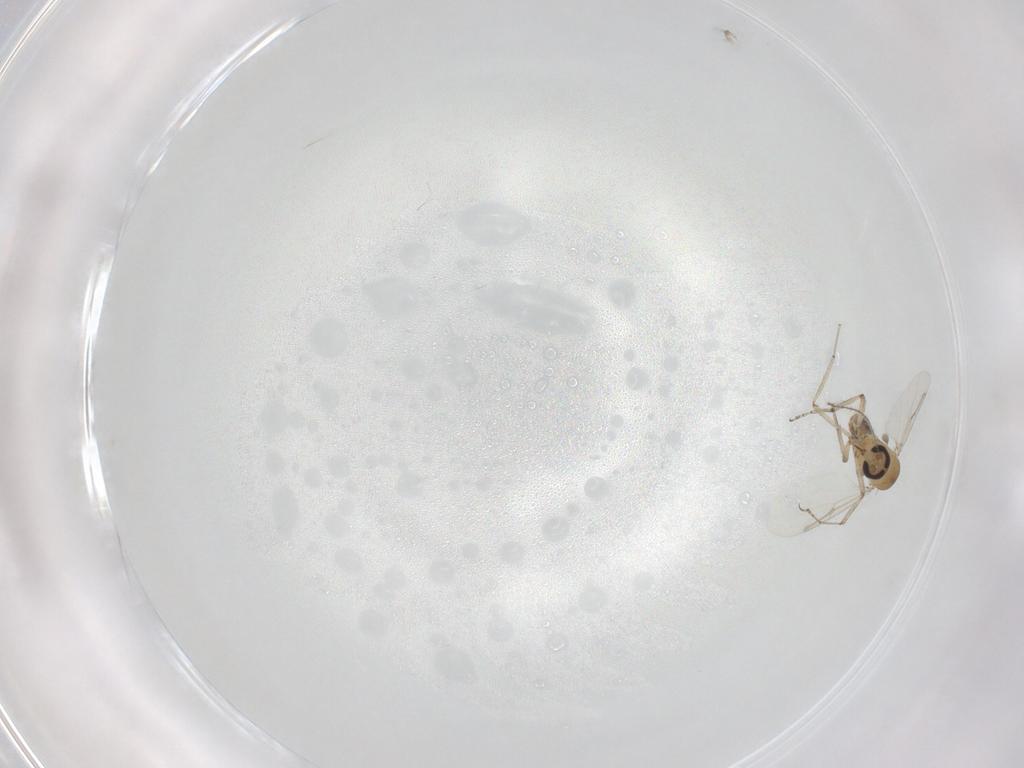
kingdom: Animalia
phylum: Arthropoda
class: Insecta
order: Diptera
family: Ceratopogonidae
